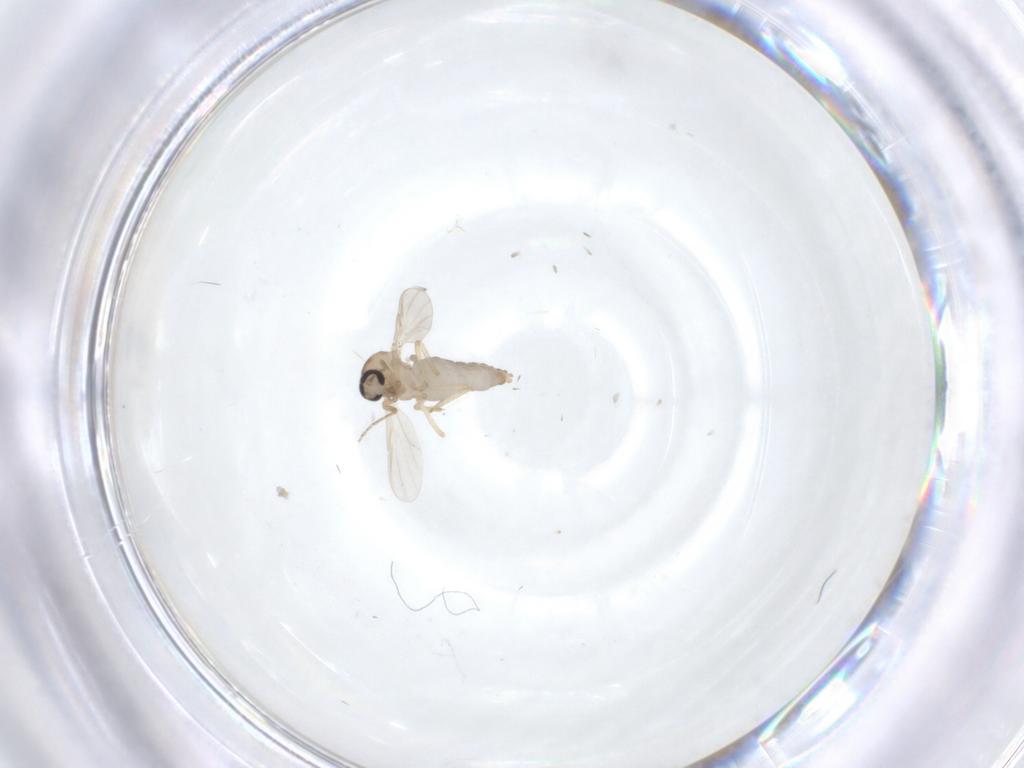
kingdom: Animalia
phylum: Arthropoda
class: Insecta
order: Diptera
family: Ceratopogonidae
